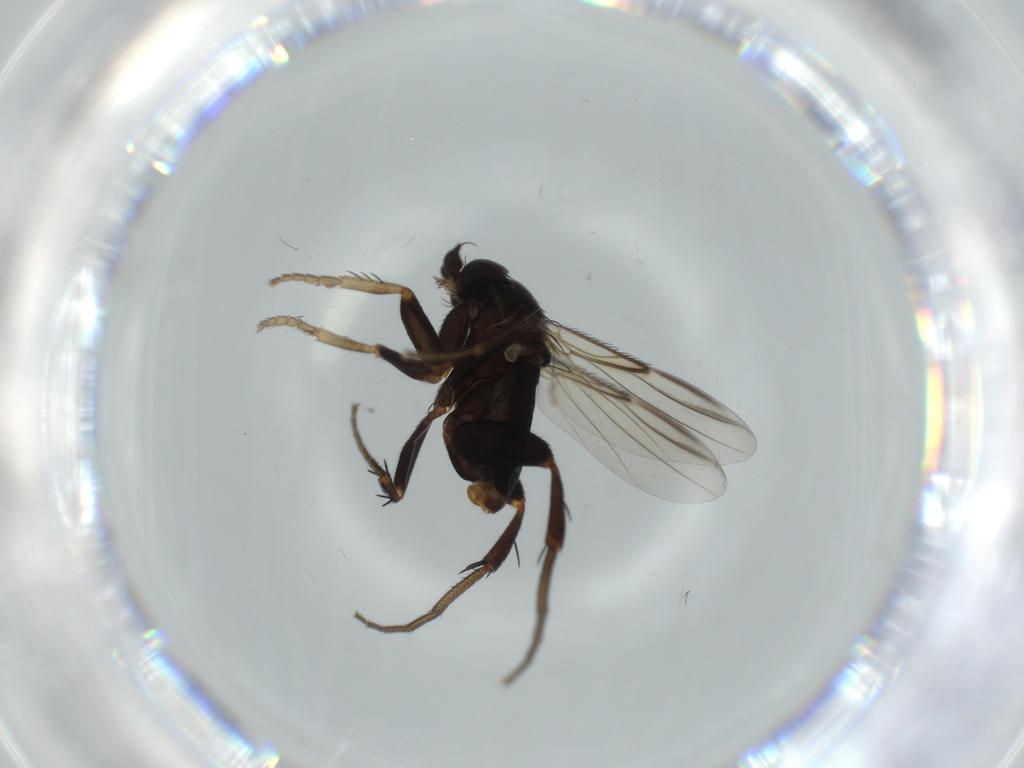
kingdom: Animalia
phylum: Arthropoda
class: Insecta
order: Diptera
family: Phoridae
